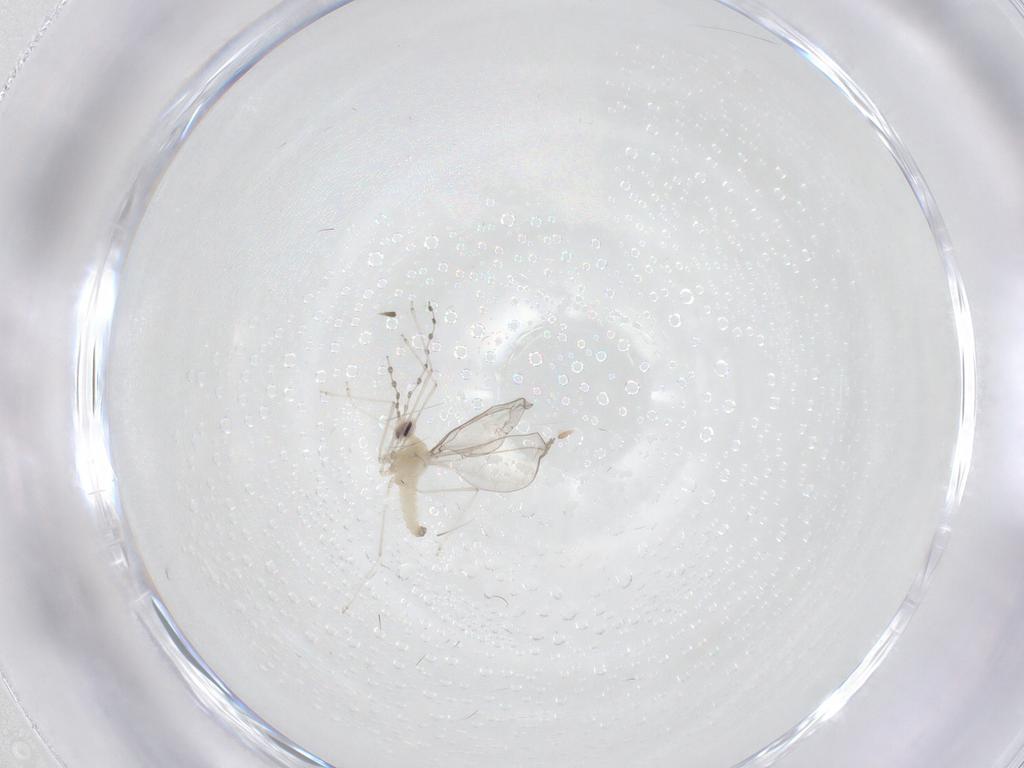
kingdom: Animalia
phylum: Arthropoda
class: Insecta
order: Diptera
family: Cecidomyiidae
